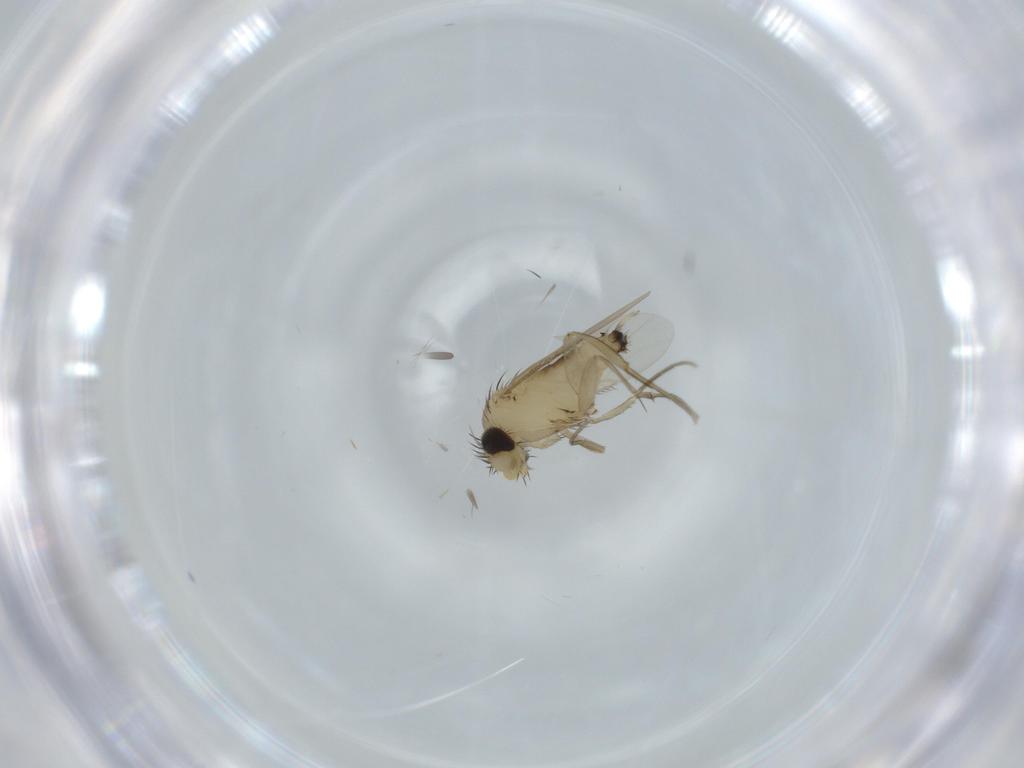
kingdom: Animalia
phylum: Arthropoda
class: Insecta
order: Diptera
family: Phoridae
